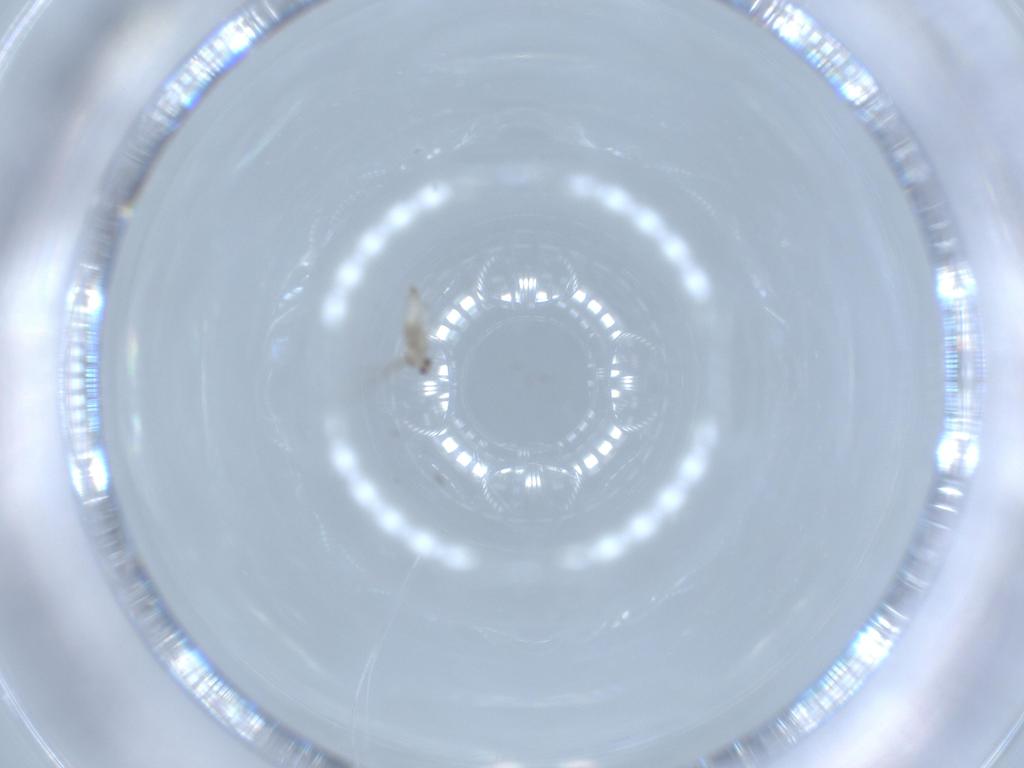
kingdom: Animalia
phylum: Arthropoda
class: Insecta
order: Diptera
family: Cecidomyiidae
